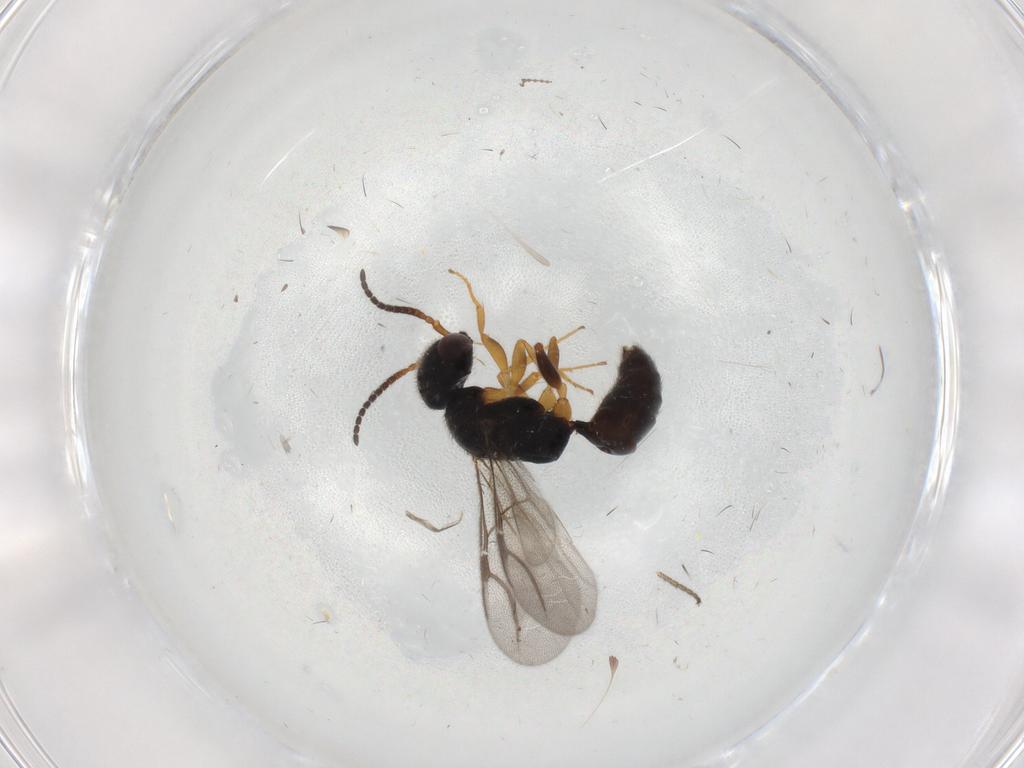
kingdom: Animalia
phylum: Arthropoda
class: Insecta
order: Hymenoptera
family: Bethylidae
